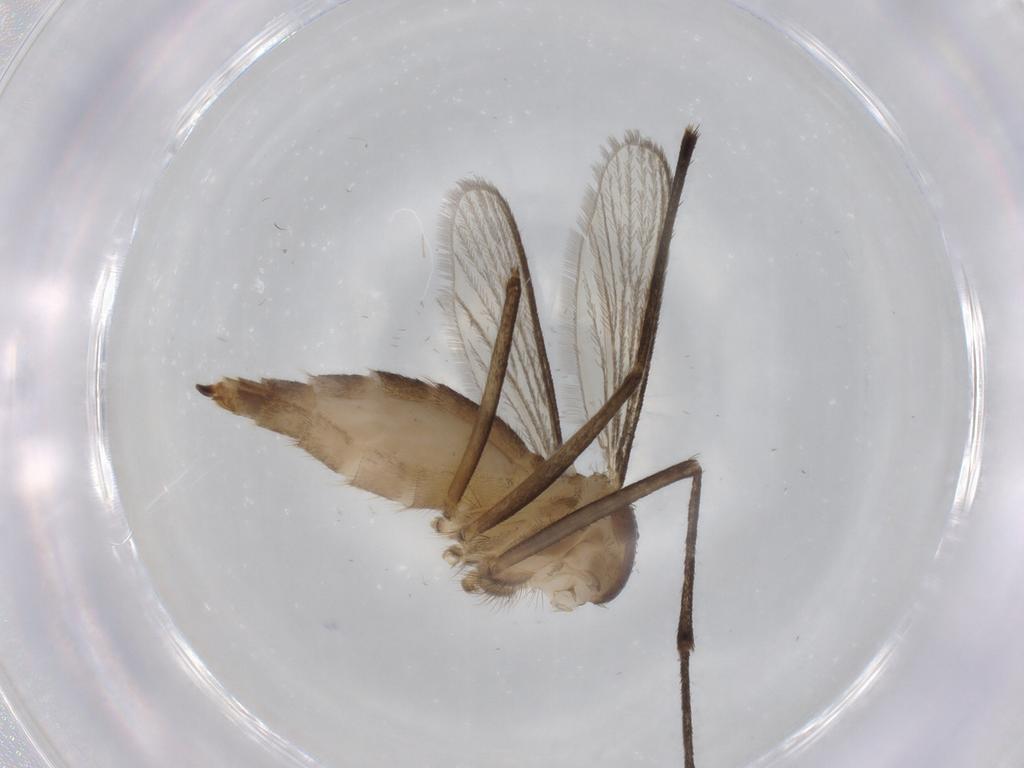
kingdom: Animalia
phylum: Arthropoda
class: Insecta
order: Diptera
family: Culicidae
